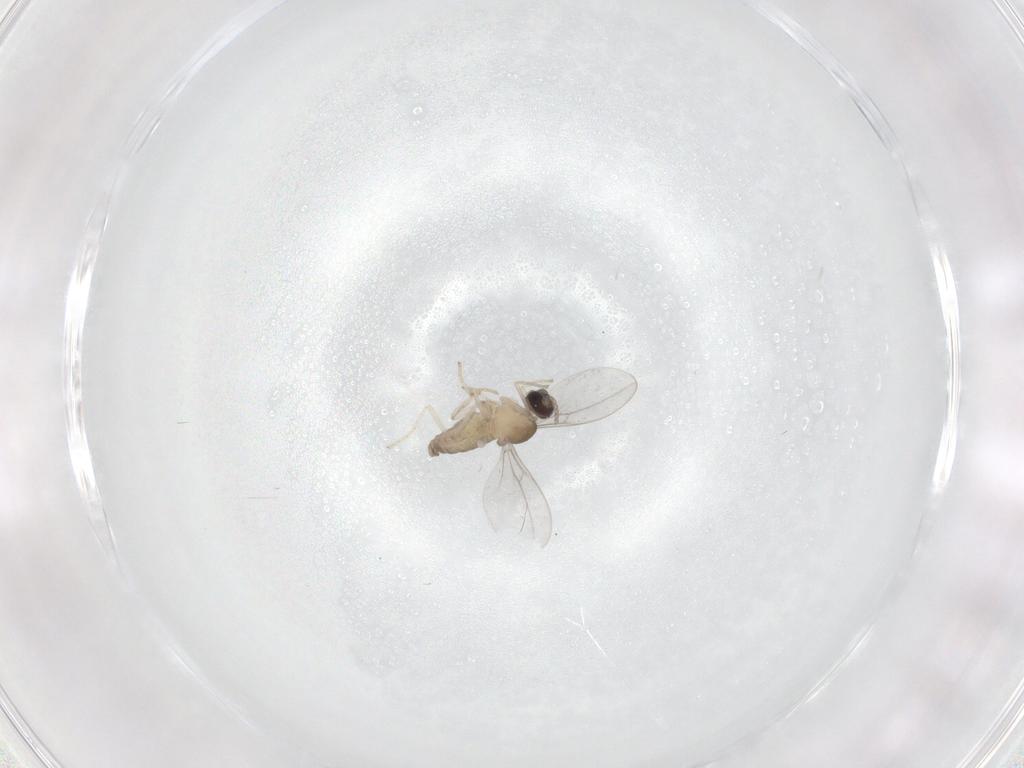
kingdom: Animalia
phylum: Arthropoda
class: Insecta
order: Diptera
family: Cecidomyiidae
